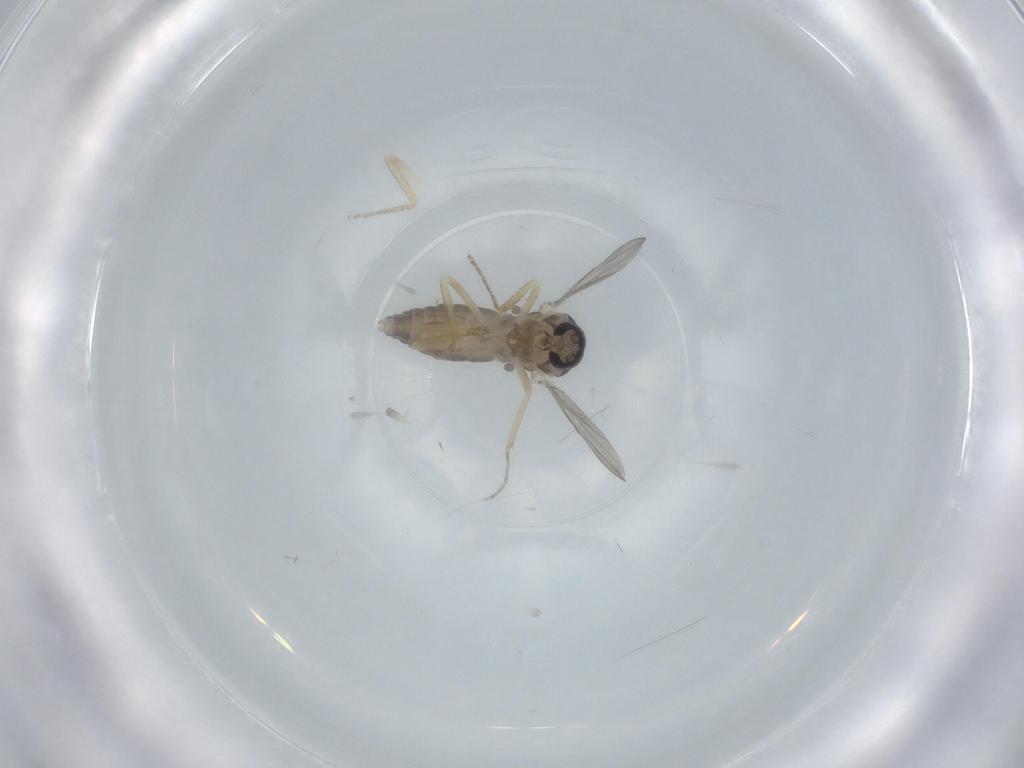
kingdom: Animalia
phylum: Arthropoda
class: Insecta
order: Diptera
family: Ceratopogonidae
